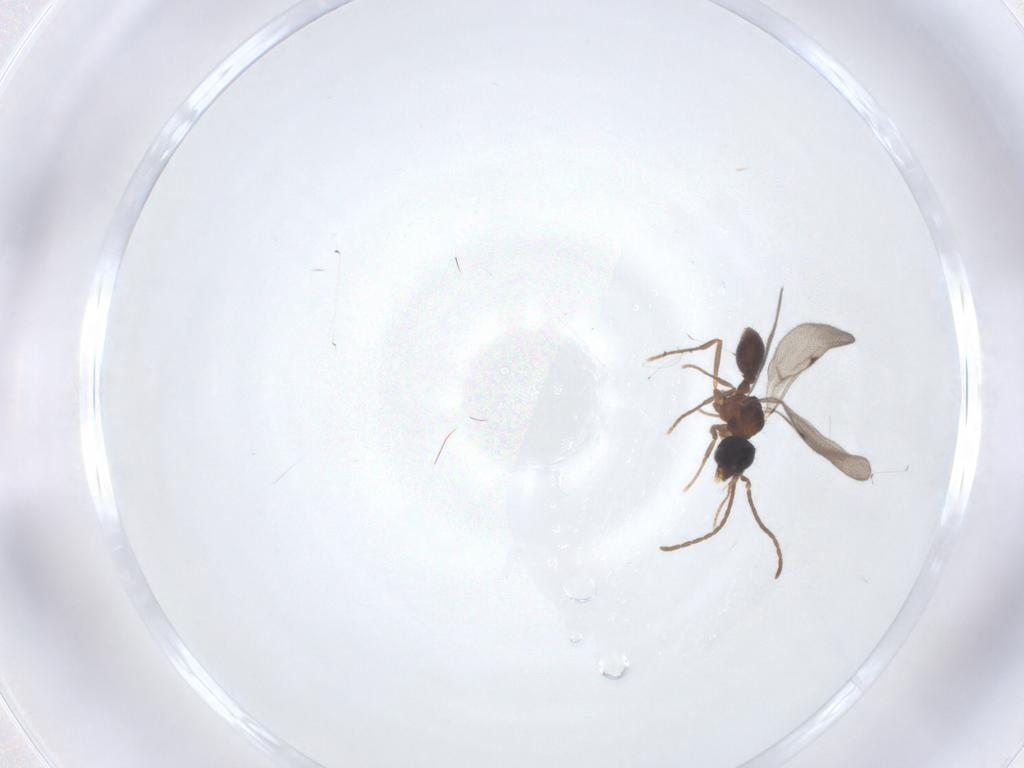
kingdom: Animalia
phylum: Arthropoda
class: Insecta
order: Hymenoptera
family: Formicidae
